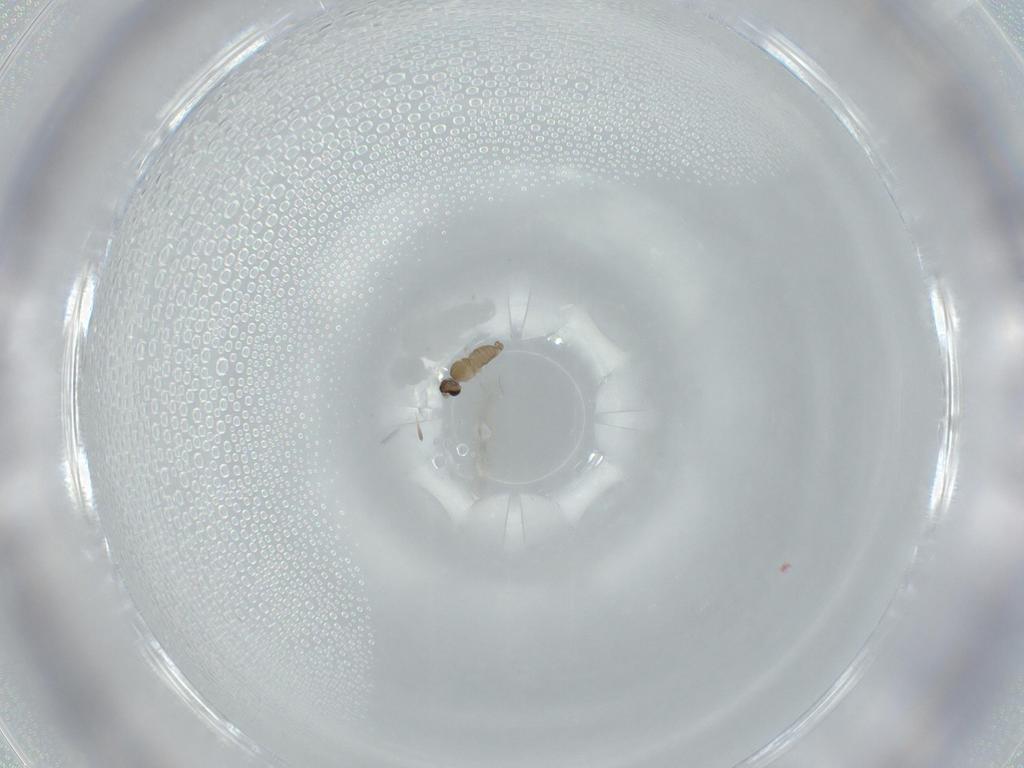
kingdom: Animalia
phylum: Arthropoda
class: Insecta
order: Diptera
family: Cecidomyiidae
